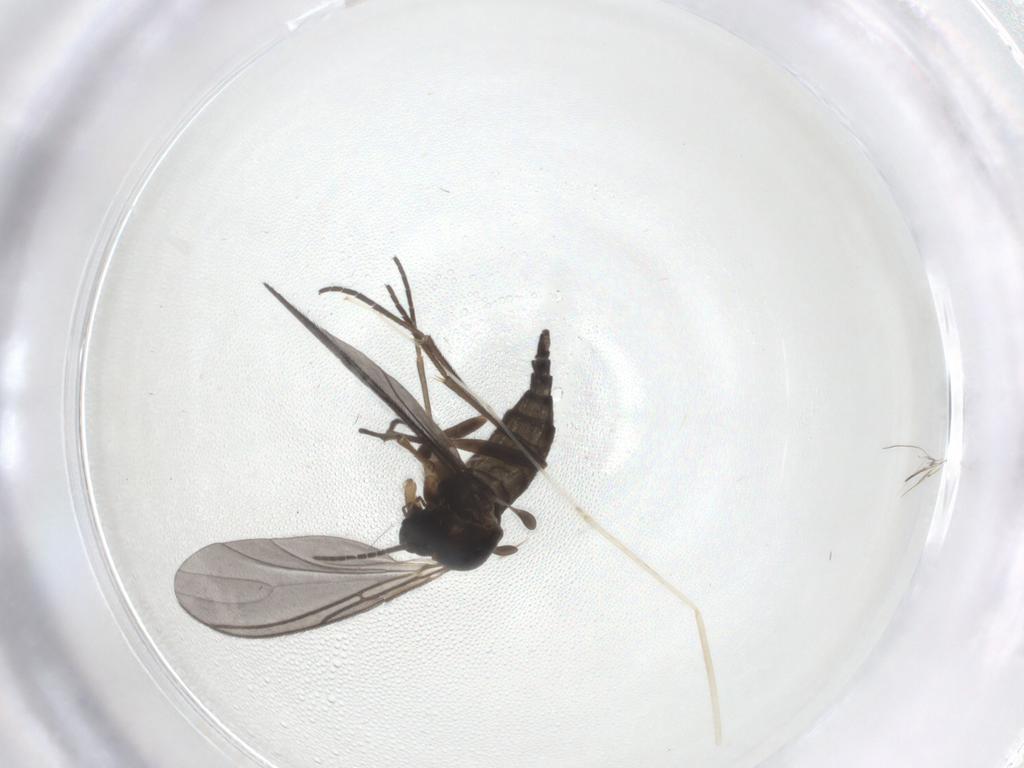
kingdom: Animalia
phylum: Arthropoda
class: Insecta
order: Diptera
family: Sciaridae
